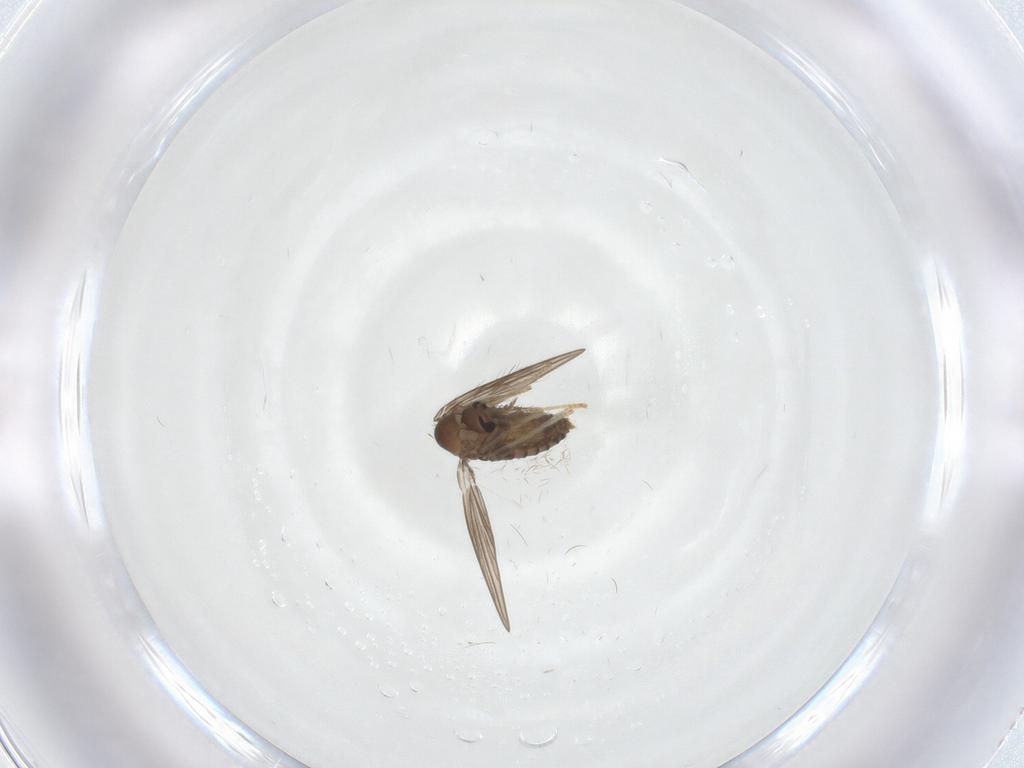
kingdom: Animalia
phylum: Arthropoda
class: Insecta
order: Diptera
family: Psychodidae
